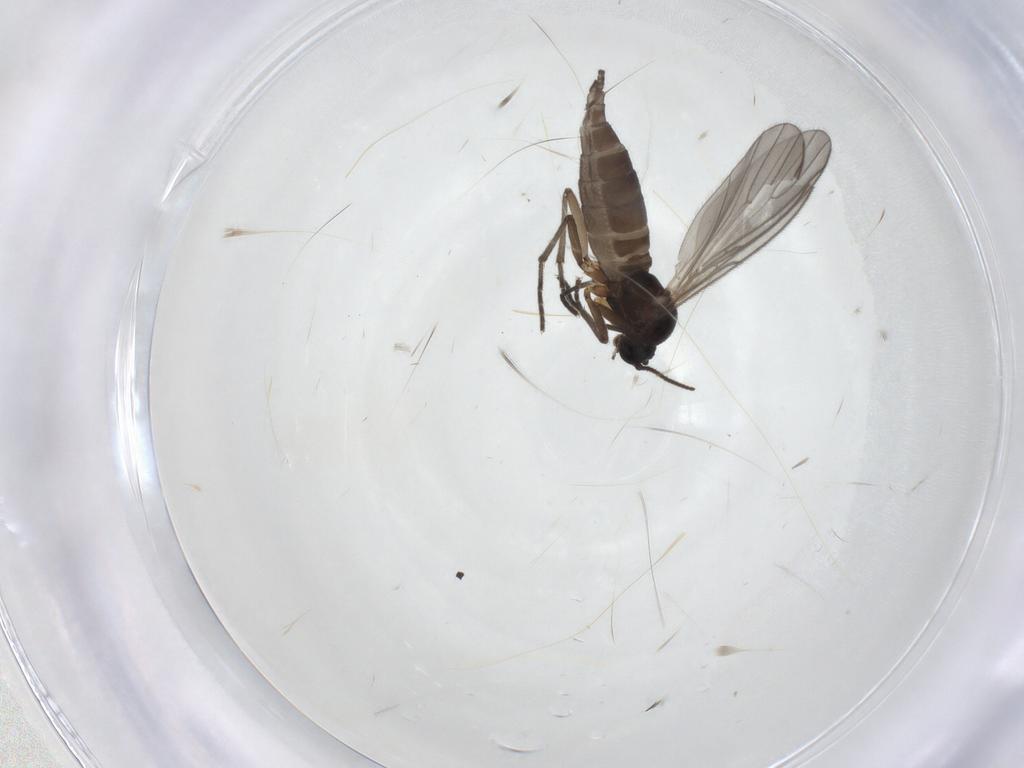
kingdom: Animalia
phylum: Arthropoda
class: Insecta
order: Diptera
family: Sciaridae
